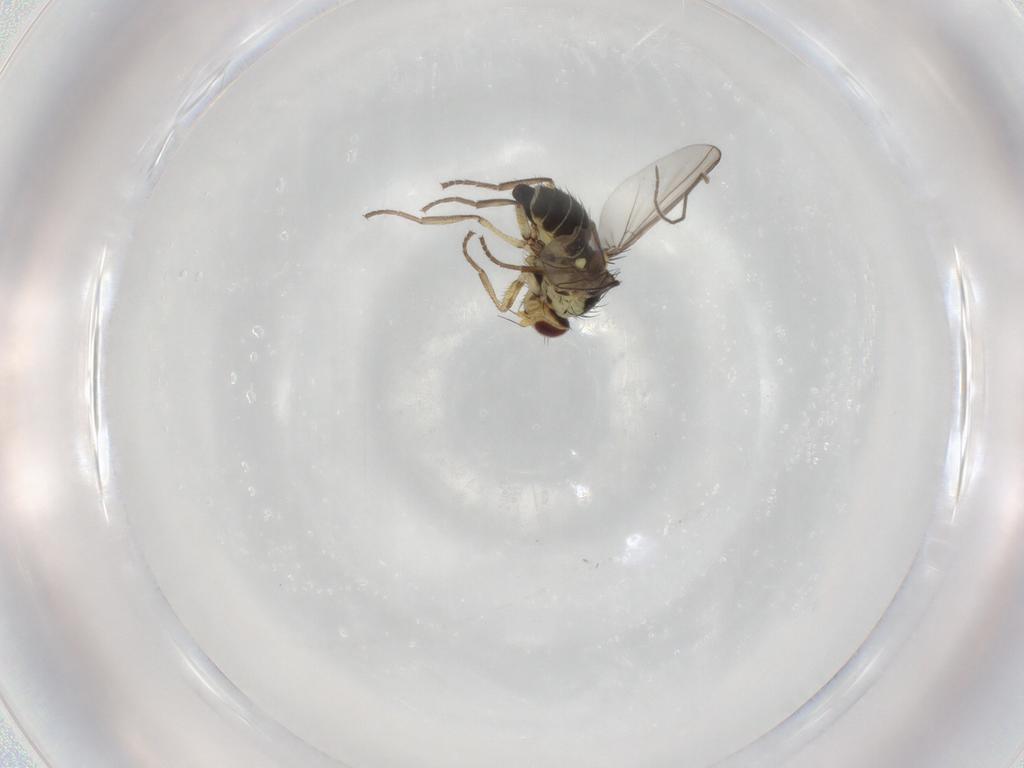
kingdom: Animalia
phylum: Arthropoda
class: Insecta
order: Diptera
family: Agromyzidae
